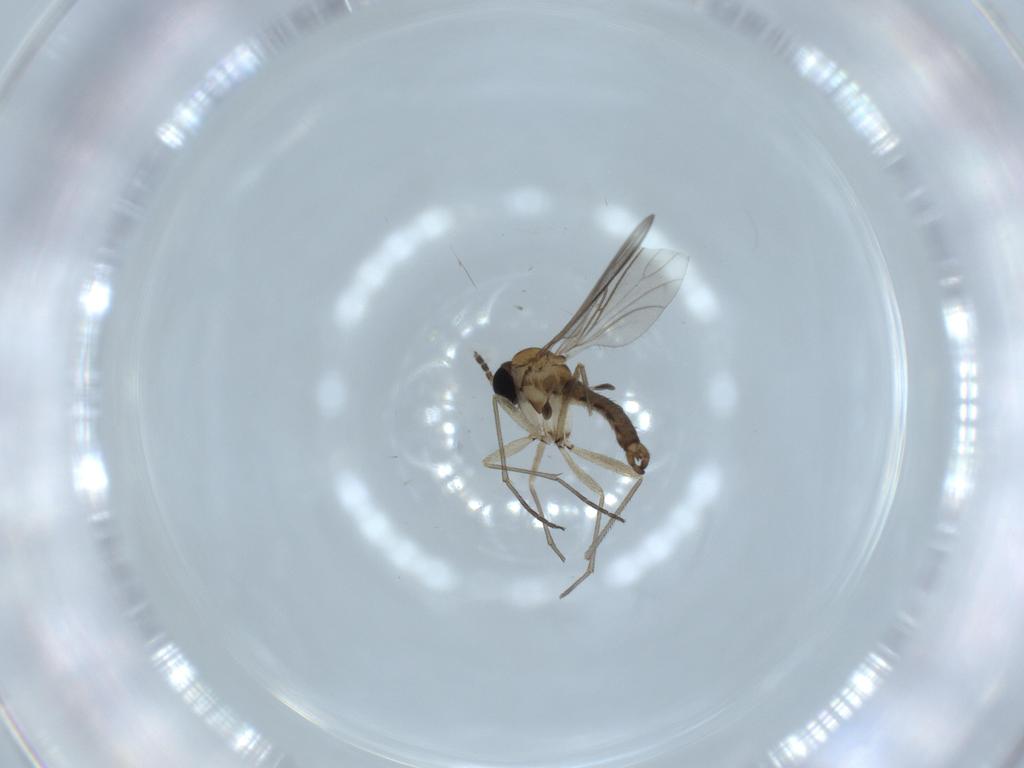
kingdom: Animalia
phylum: Arthropoda
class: Insecta
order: Diptera
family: Sciaridae
